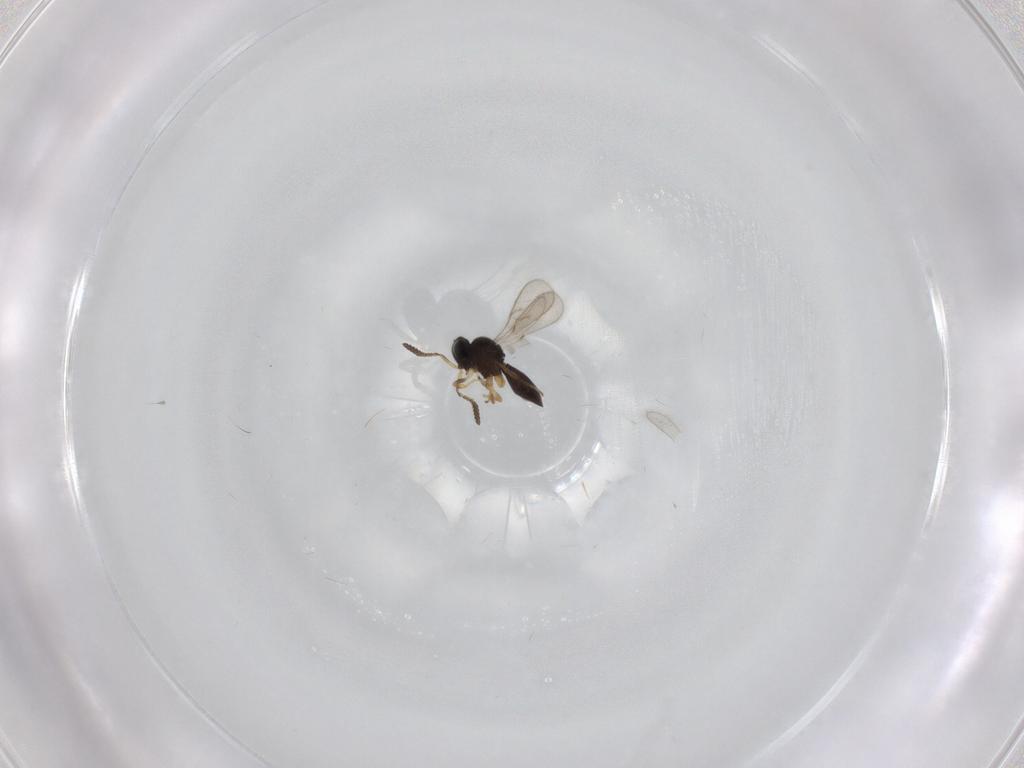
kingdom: Animalia
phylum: Arthropoda
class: Insecta
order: Hymenoptera
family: Scelionidae
